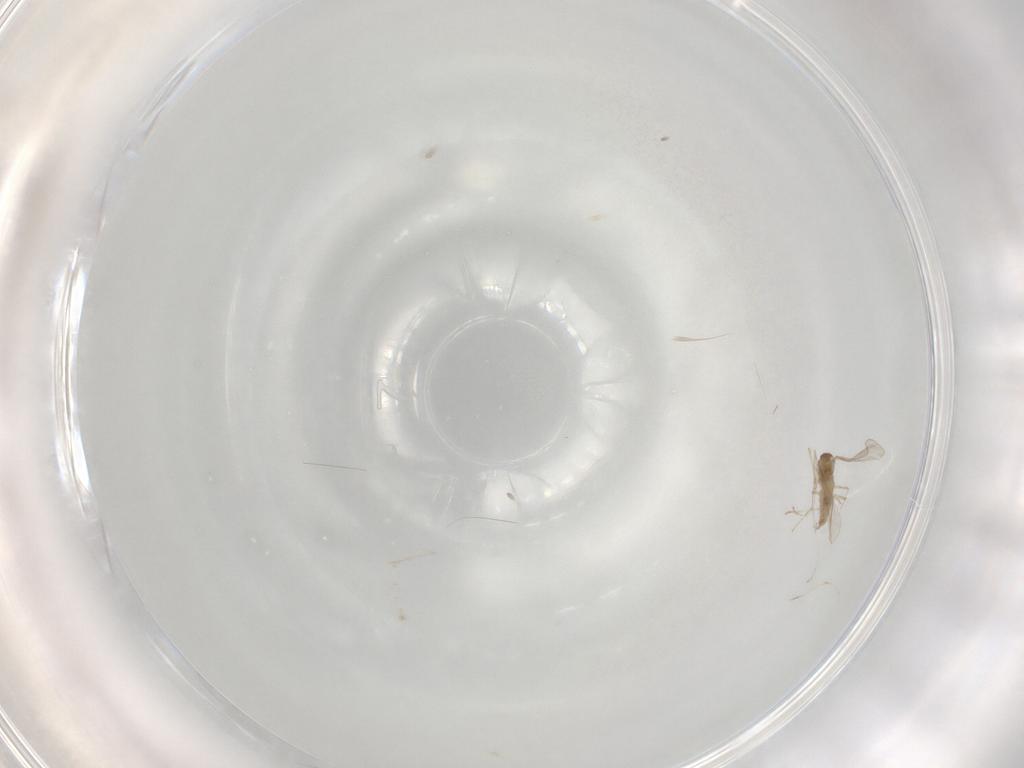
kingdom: Animalia
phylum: Arthropoda
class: Insecta
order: Diptera
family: Cecidomyiidae
